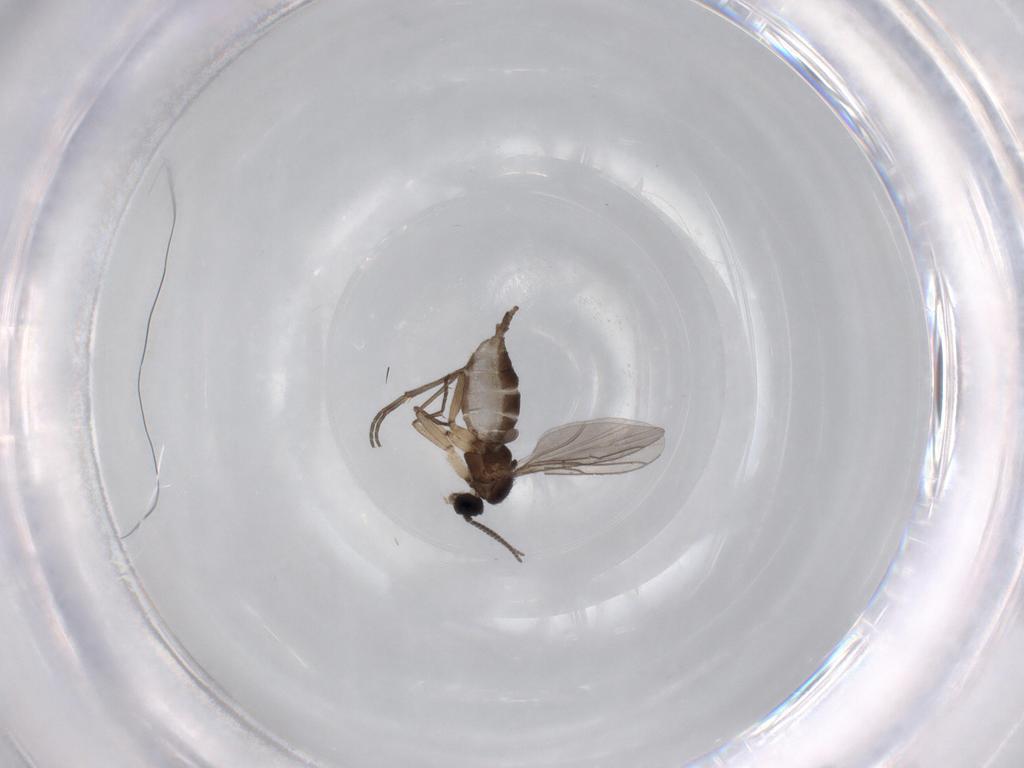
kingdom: Animalia
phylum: Arthropoda
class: Insecta
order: Diptera
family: Sciaridae
